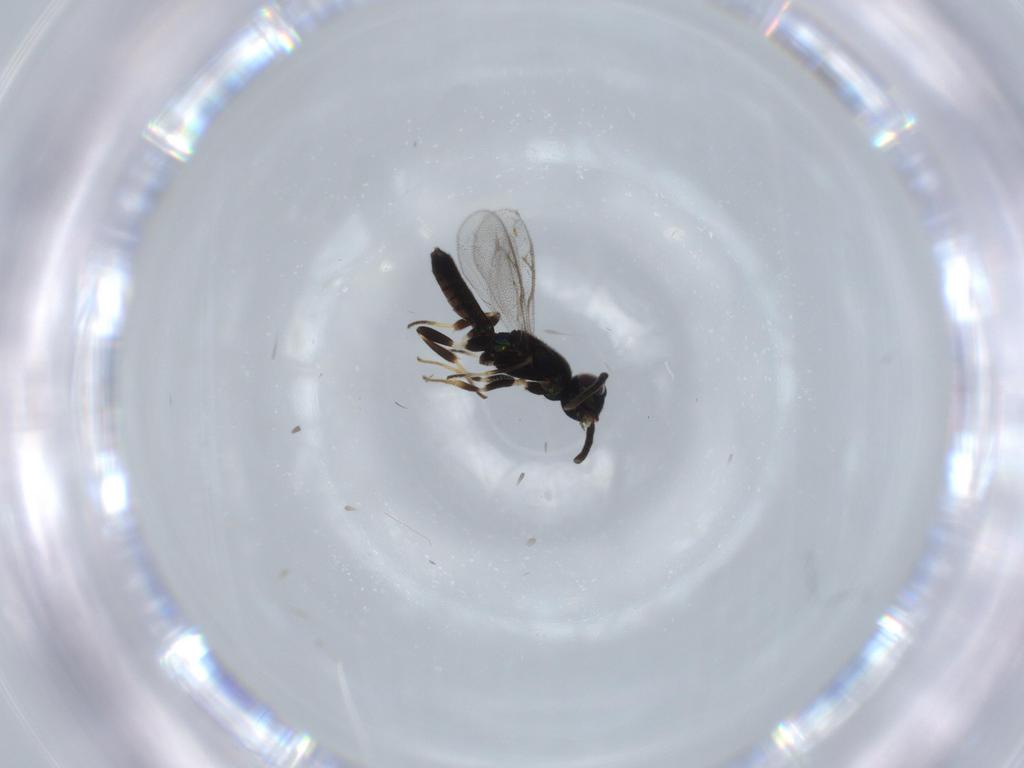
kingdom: Animalia
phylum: Arthropoda
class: Insecta
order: Hymenoptera
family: Eupelmidae
